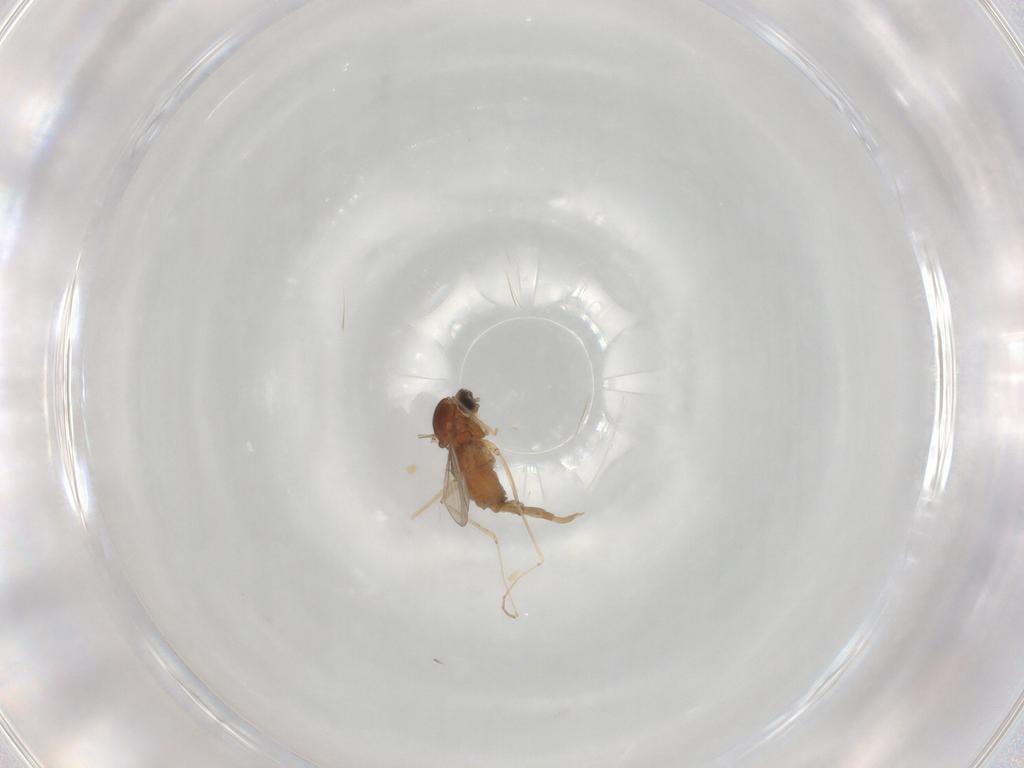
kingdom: Animalia
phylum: Arthropoda
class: Insecta
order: Diptera
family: Cecidomyiidae
